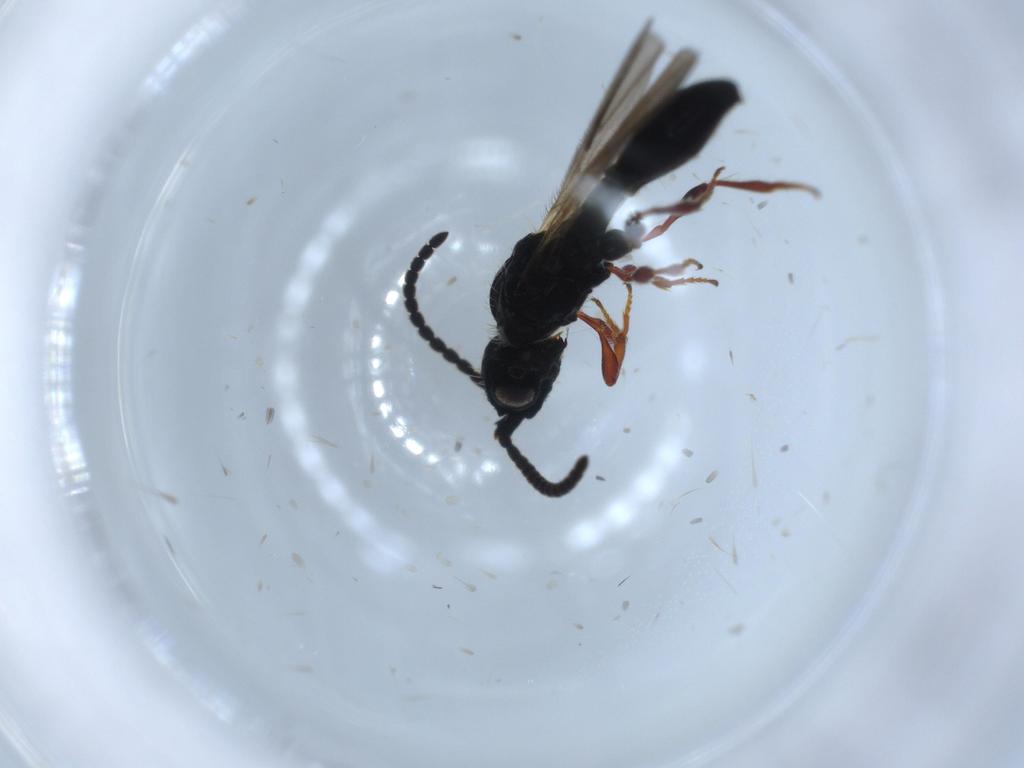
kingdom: Animalia
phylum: Arthropoda
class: Insecta
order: Hymenoptera
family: Diapriidae
